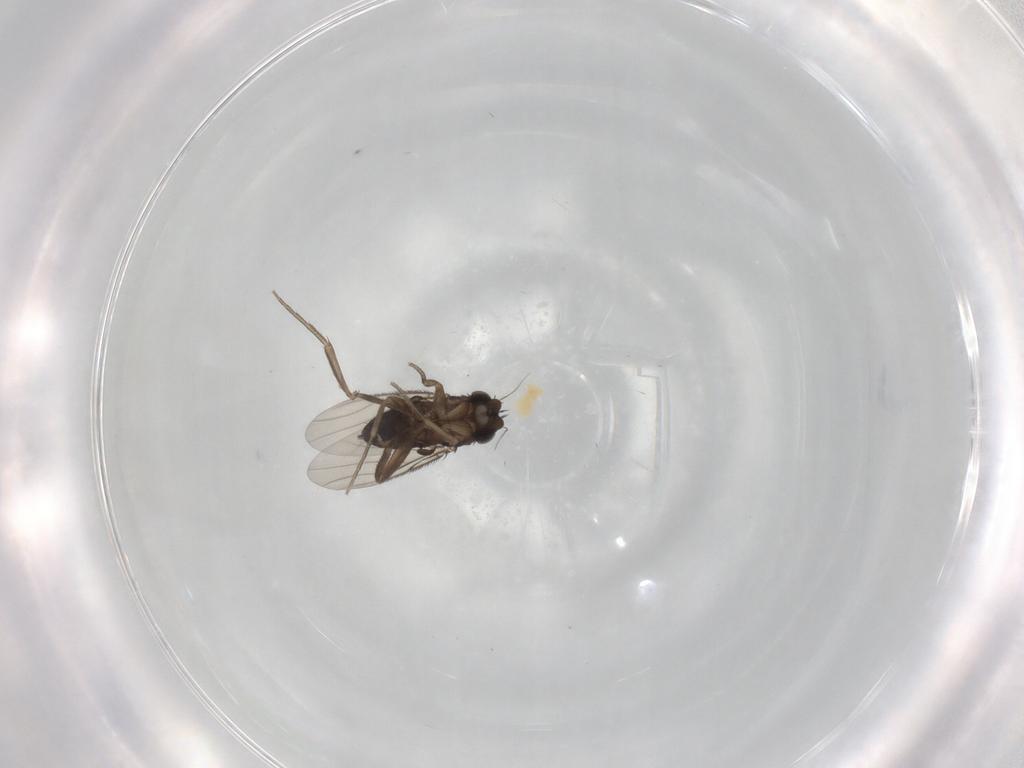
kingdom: Animalia
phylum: Arthropoda
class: Insecta
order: Diptera
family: Phoridae
